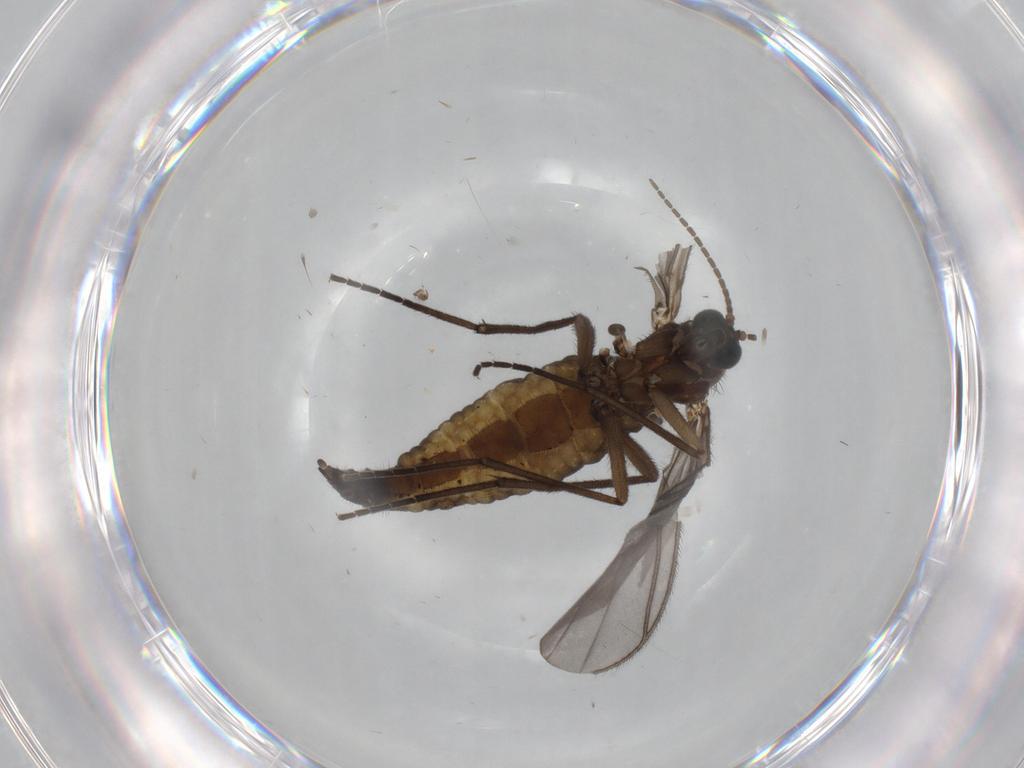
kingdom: Animalia
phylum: Arthropoda
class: Insecta
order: Diptera
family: Sciaridae
